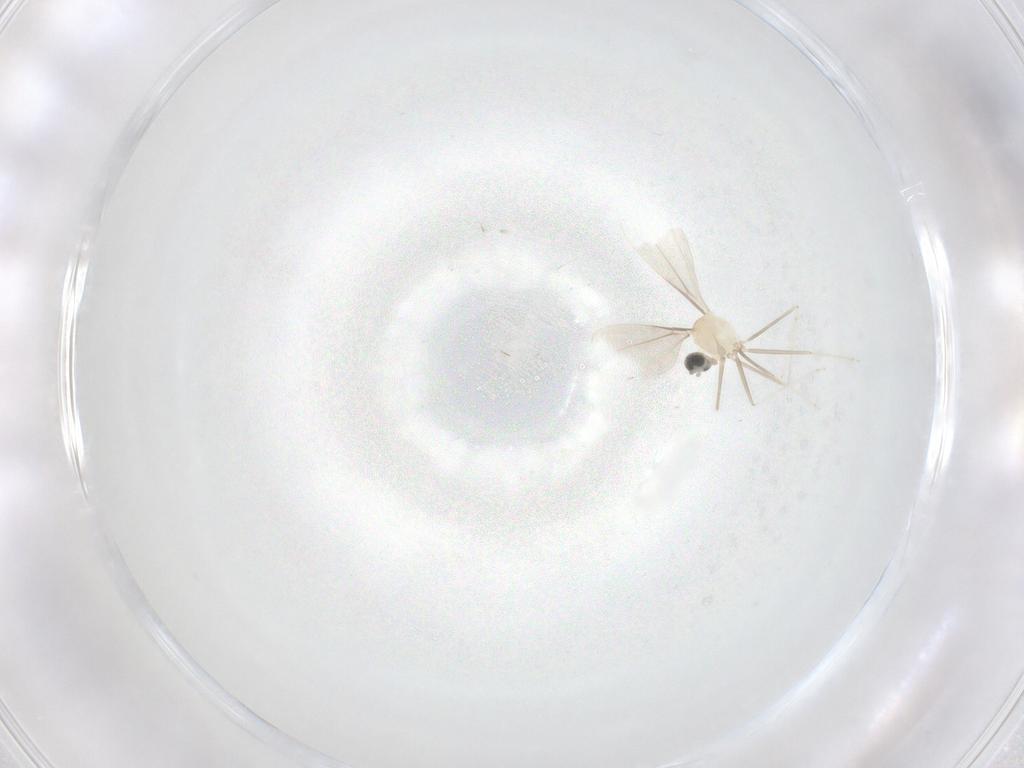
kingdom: Animalia
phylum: Arthropoda
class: Insecta
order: Diptera
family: Cecidomyiidae
